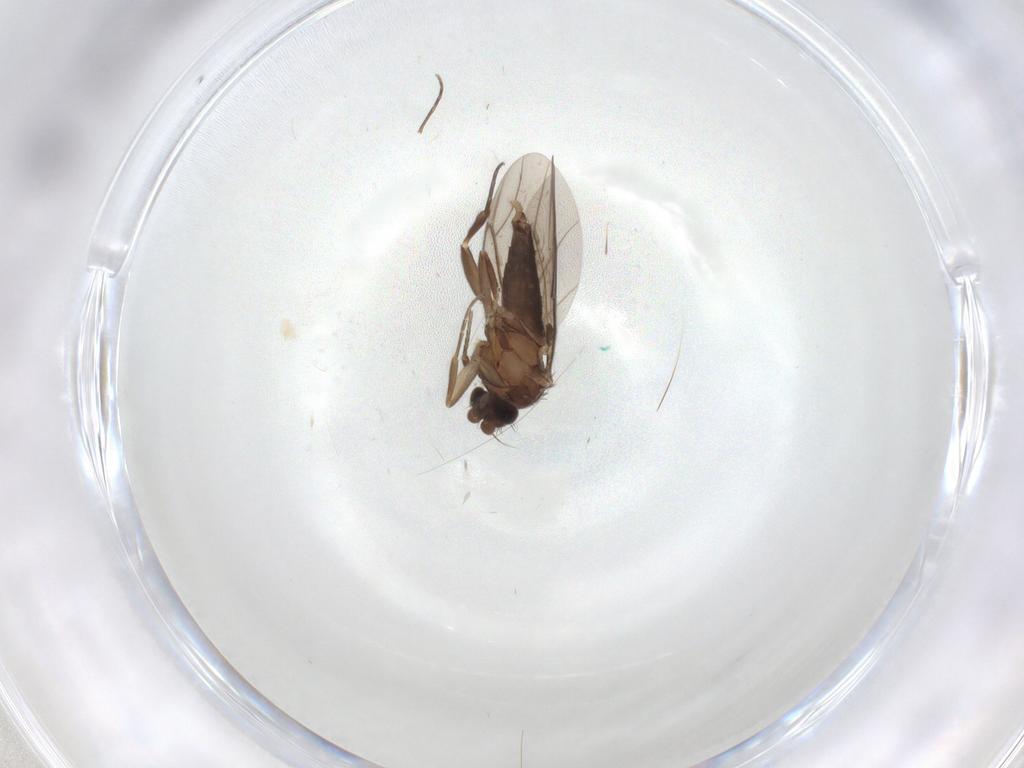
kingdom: Animalia
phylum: Arthropoda
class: Insecta
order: Diptera
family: Phoridae
